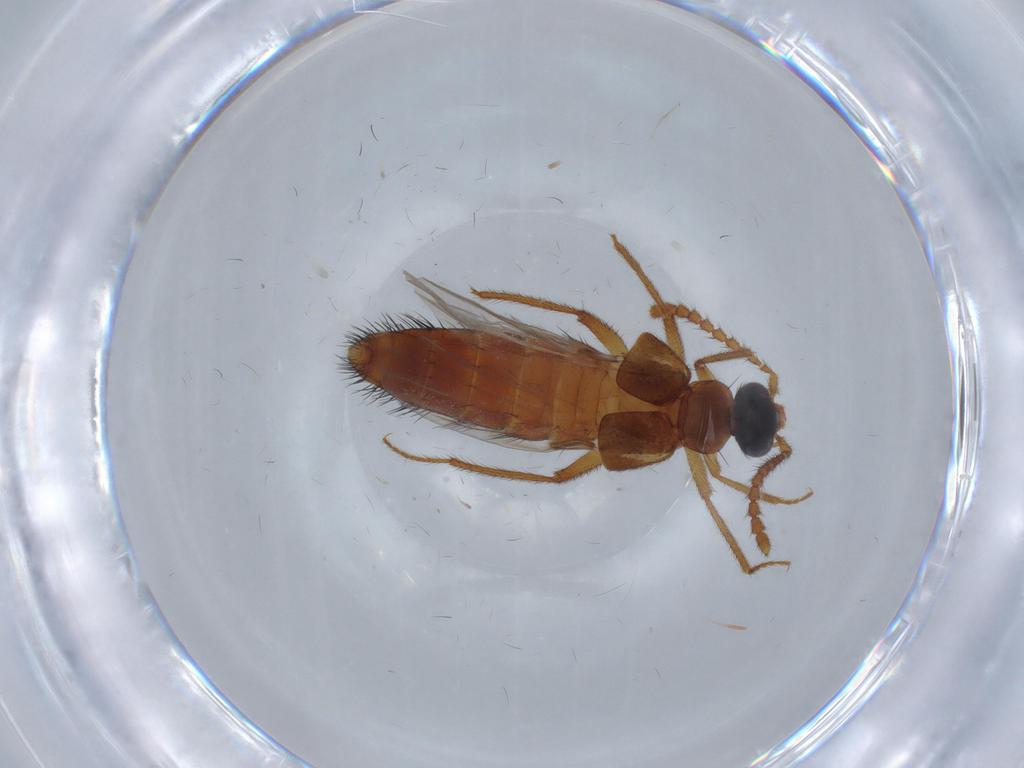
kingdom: Animalia
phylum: Arthropoda
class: Insecta
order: Coleoptera
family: Staphylinidae
